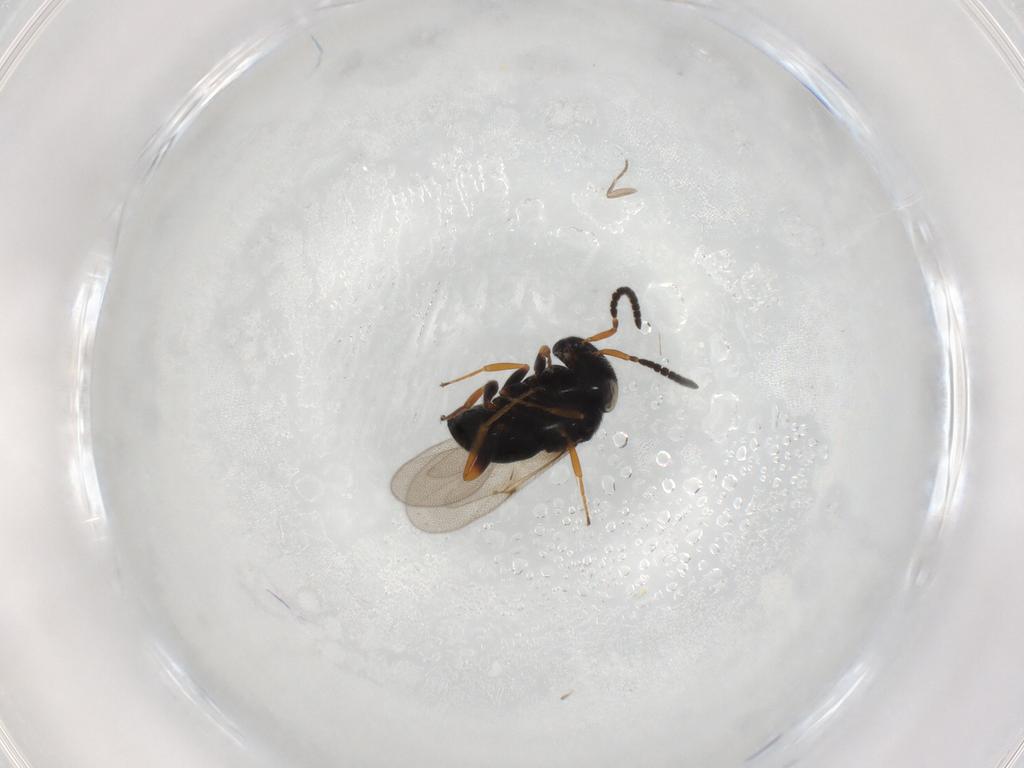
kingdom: Animalia
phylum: Arthropoda
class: Insecta
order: Hymenoptera
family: Scelionidae
